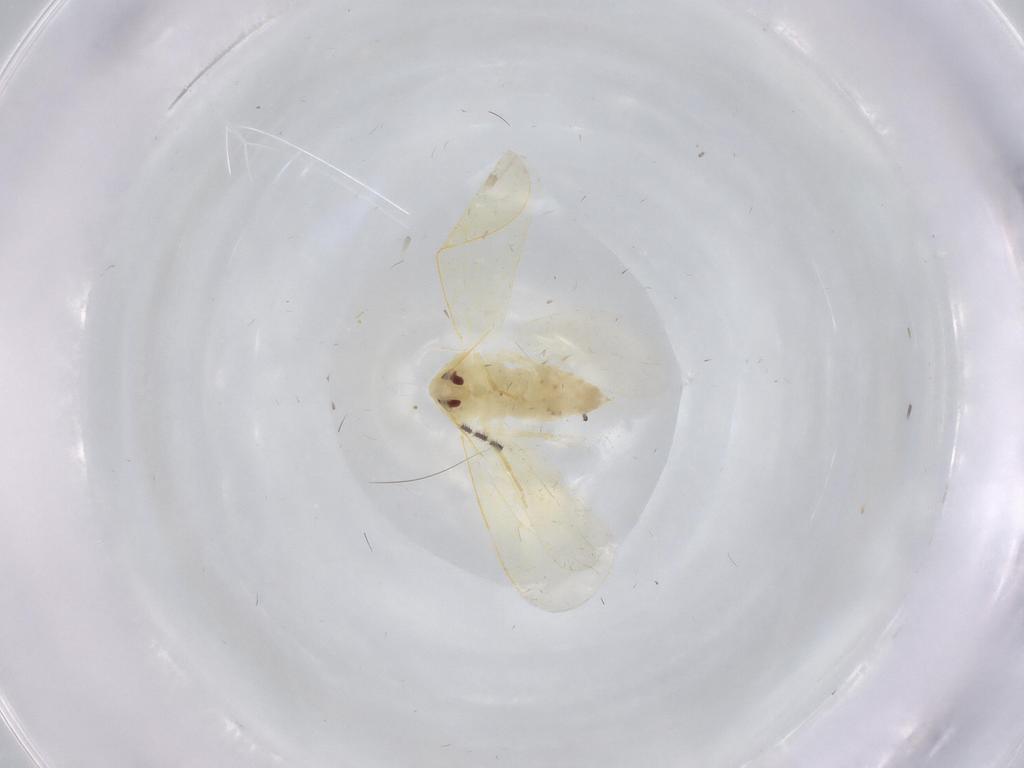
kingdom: Animalia
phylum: Arthropoda
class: Insecta
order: Hemiptera
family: Aleyrodidae
